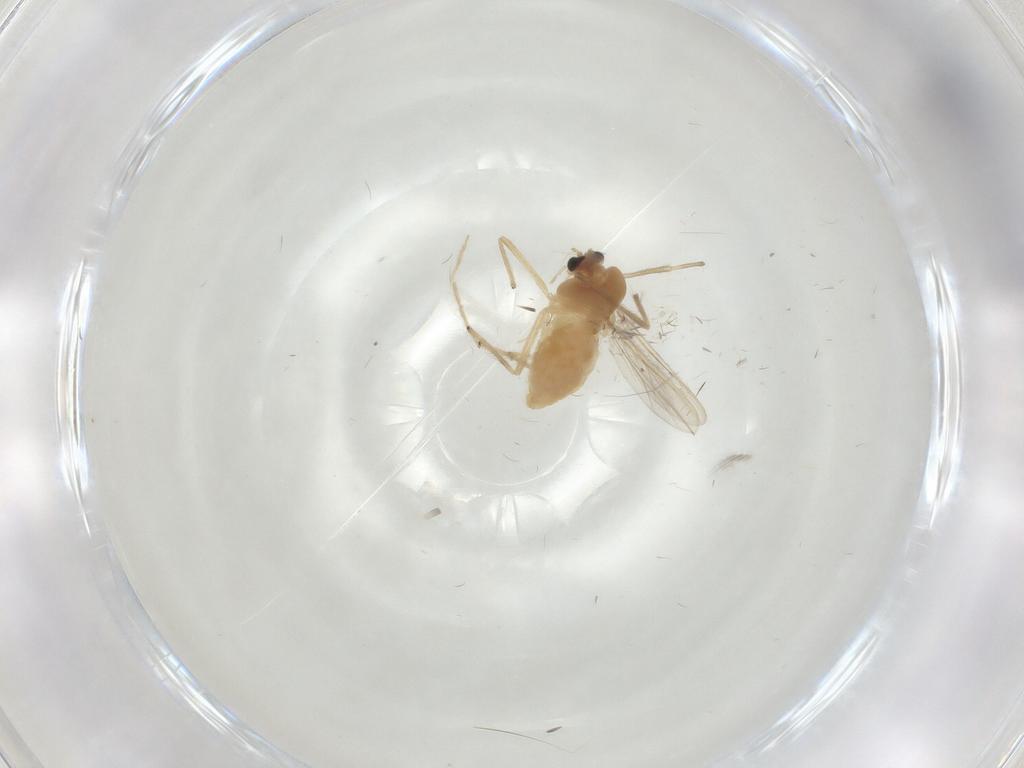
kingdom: Animalia
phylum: Arthropoda
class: Insecta
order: Diptera
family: Chironomidae
